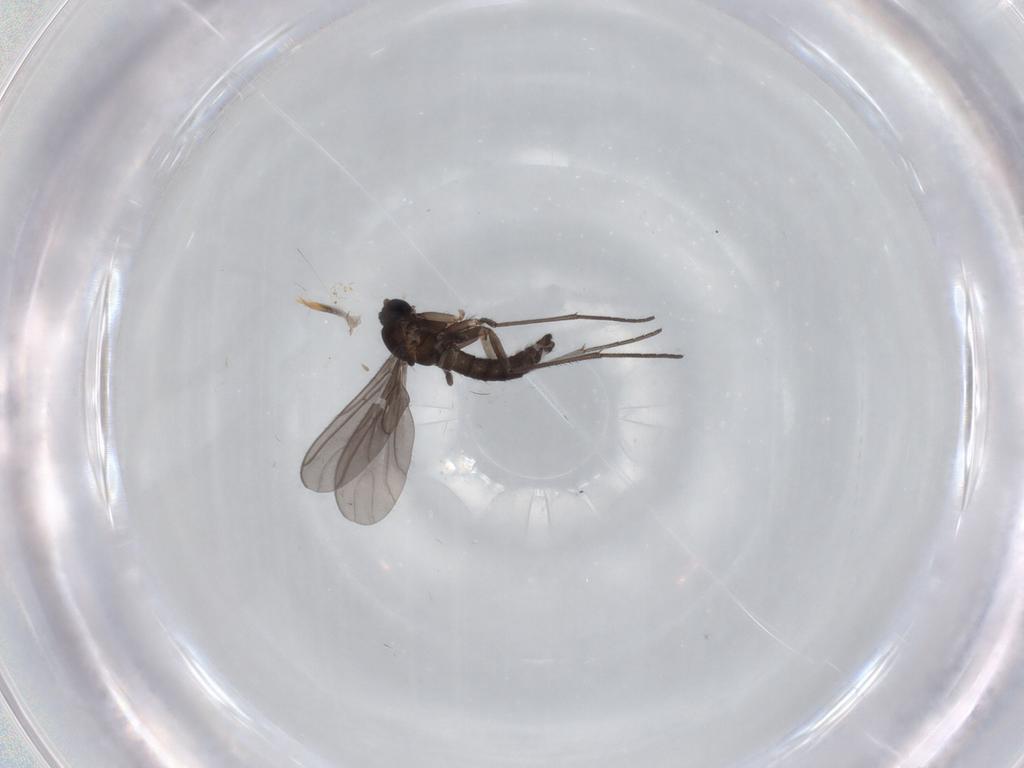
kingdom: Animalia
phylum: Arthropoda
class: Insecta
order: Diptera
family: Sciaridae
